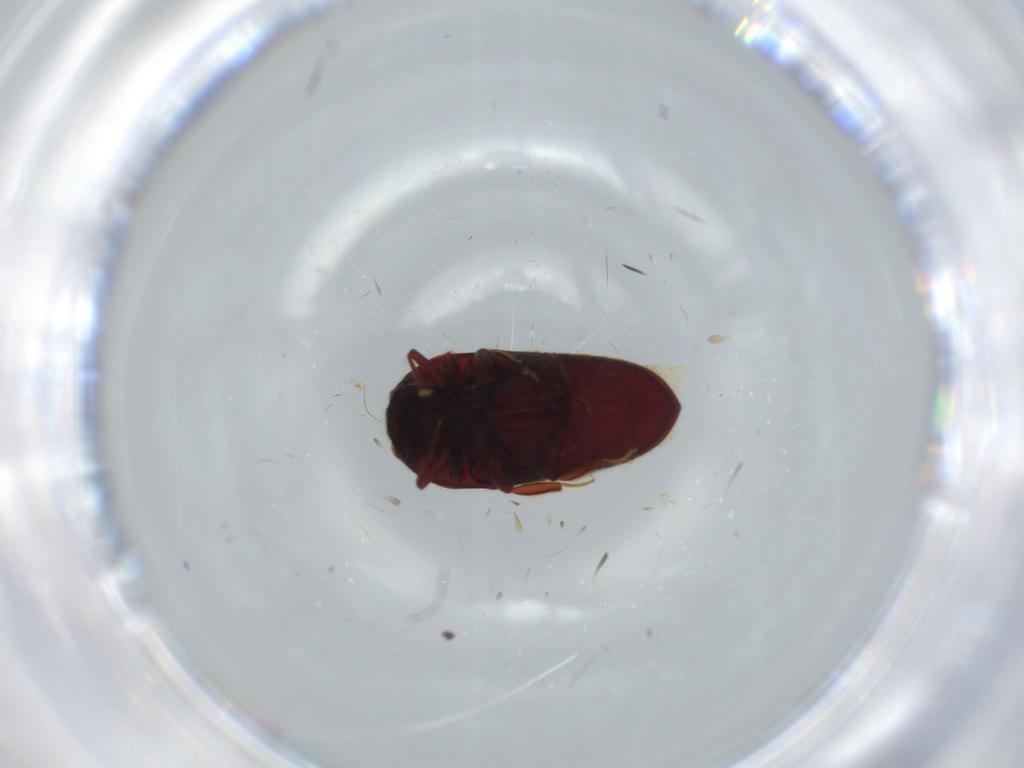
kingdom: Animalia
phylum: Arthropoda
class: Insecta
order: Coleoptera
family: Throscidae
